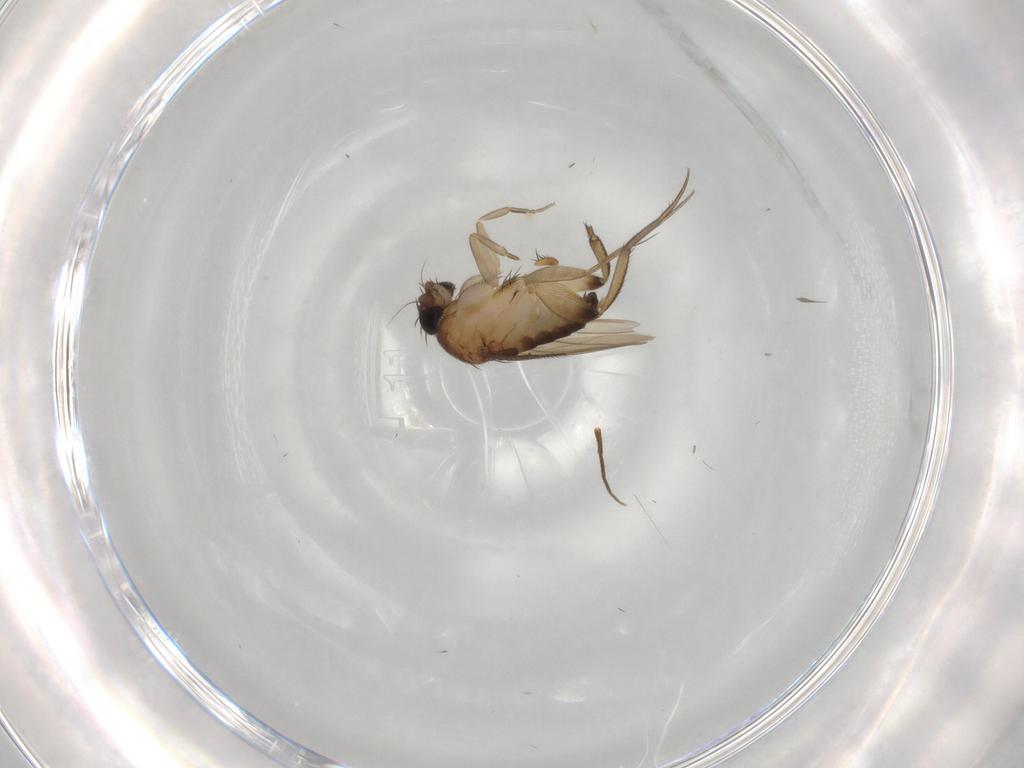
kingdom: Animalia
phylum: Arthropoda
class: Insecta
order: Diptera
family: Phoridae
